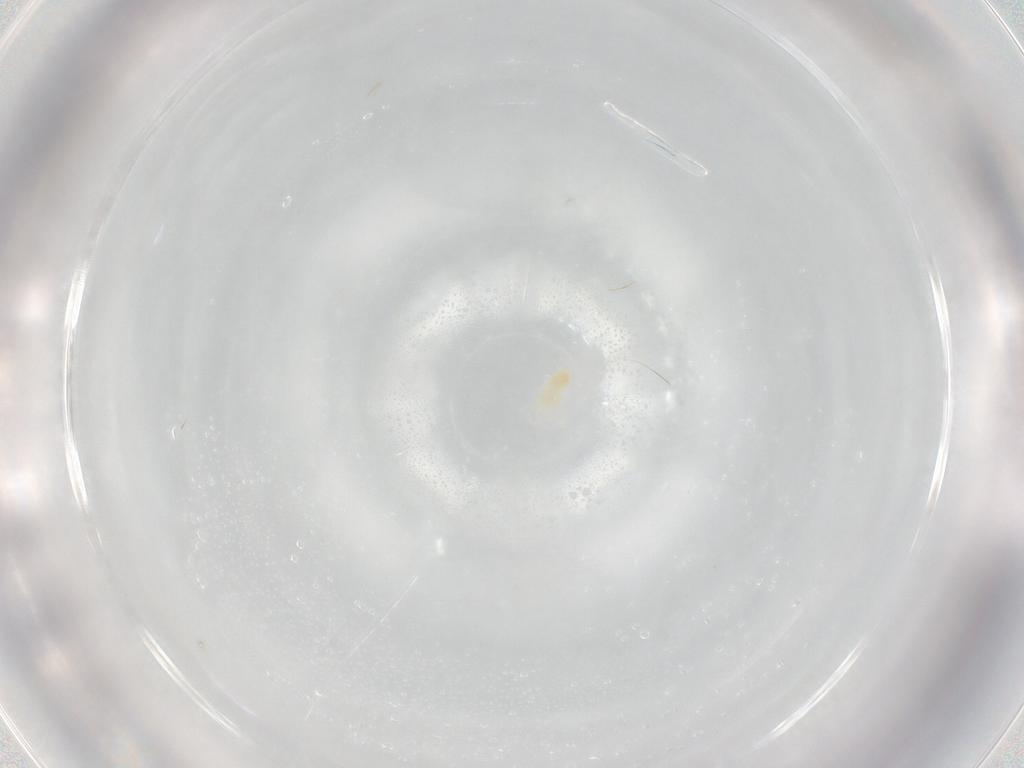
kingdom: Animalia
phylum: Arthropoda
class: Arachnida
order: Trombidiformes
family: Eupodidae
